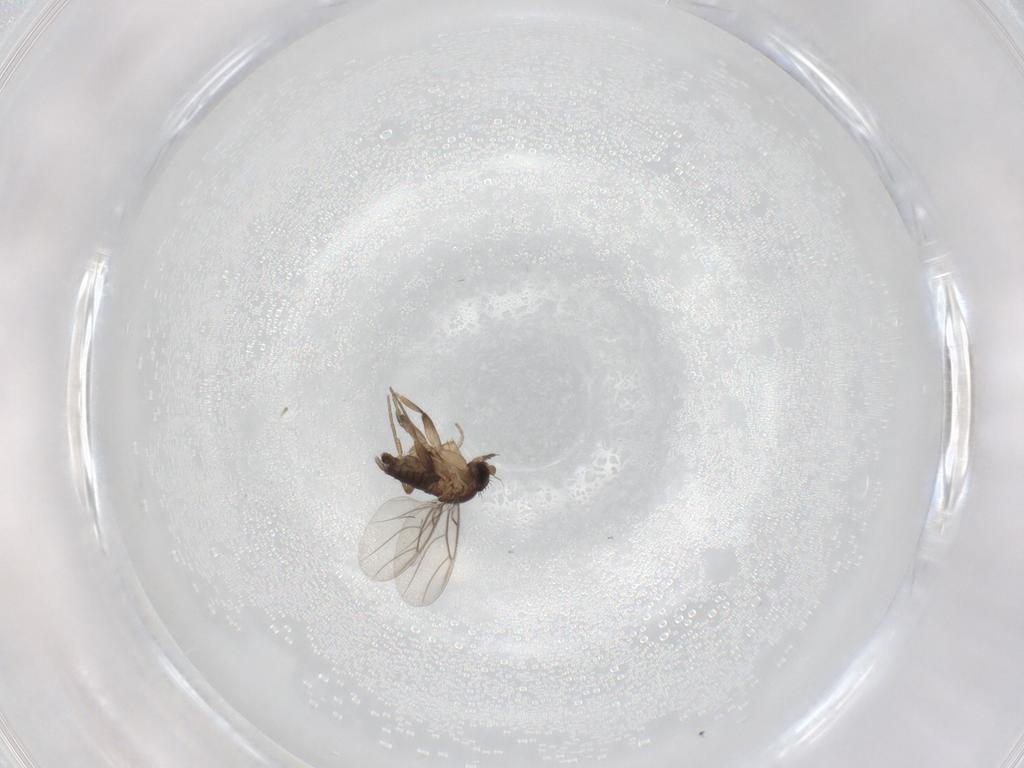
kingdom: Animalia
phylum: Arthropoda
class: Insecta
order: Diptera
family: Phoridae
